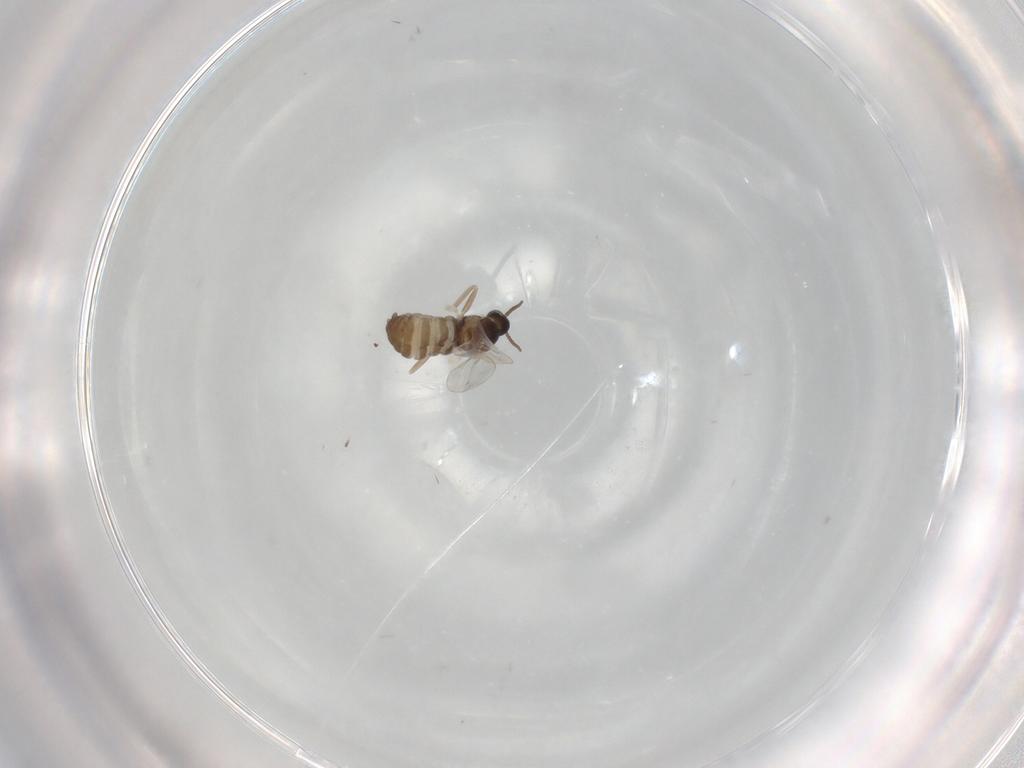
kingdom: Animalia
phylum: Arthropoda
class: Insecta
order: Diptera
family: Cecidomyiidae
